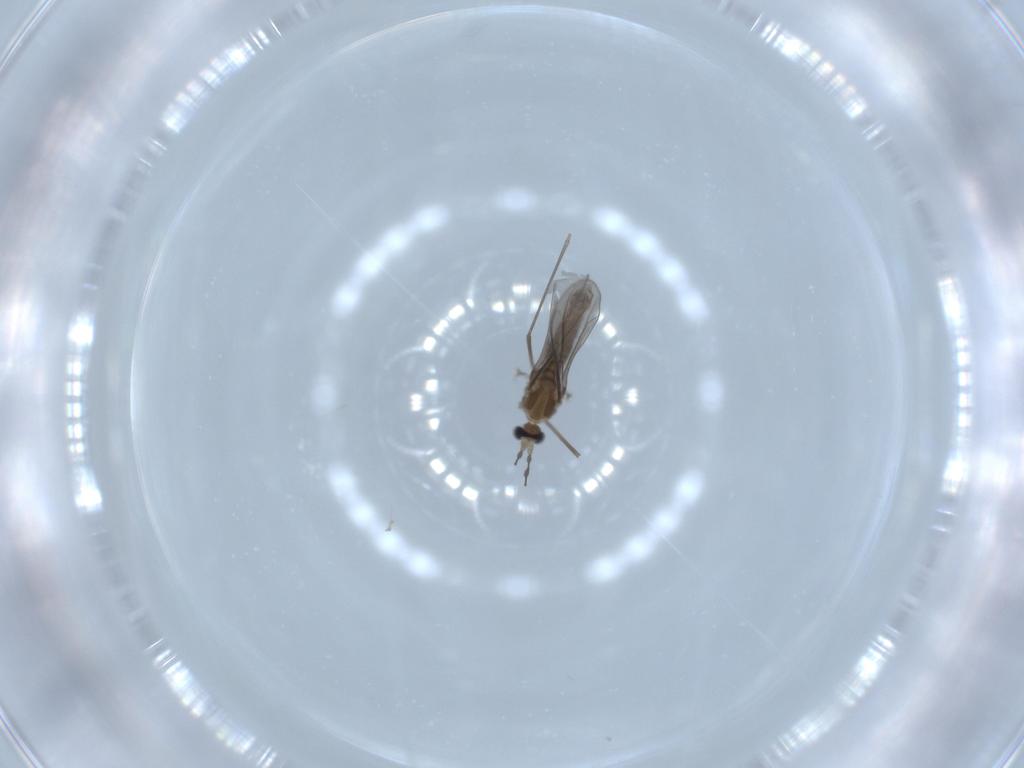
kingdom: Animalia
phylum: Arthropoda
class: Insecta
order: Diptera
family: Cecidomyiidae
